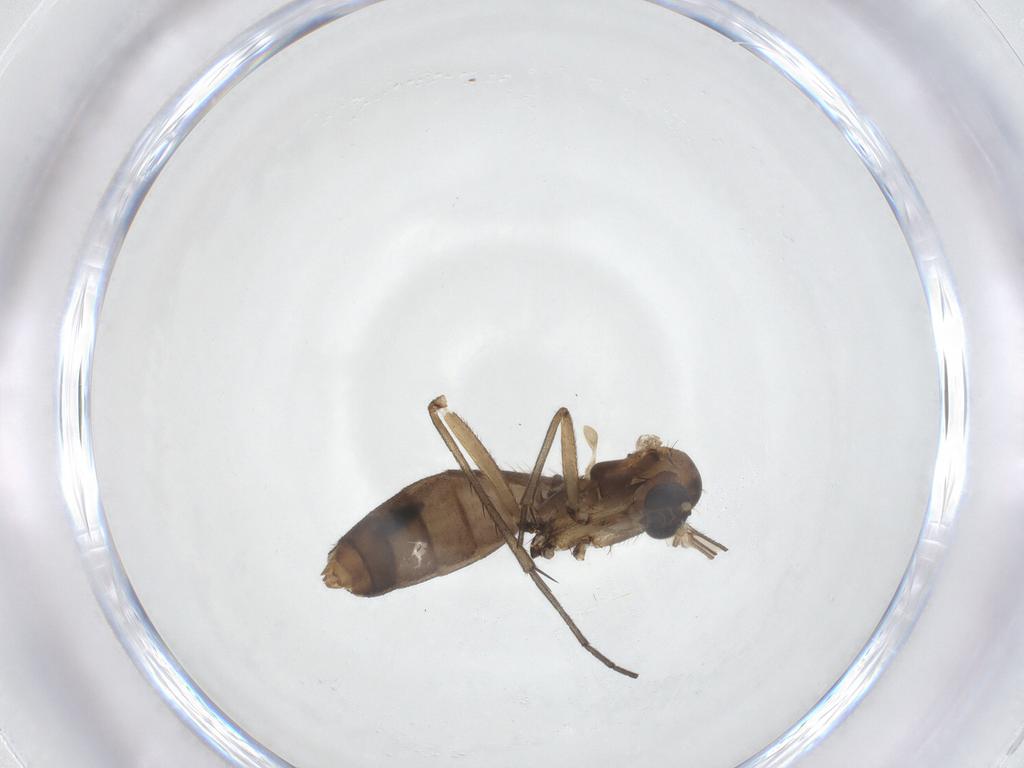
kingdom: Animalia
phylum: Arthropoda
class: Insecta
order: Diptera
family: Mycetophilidae
